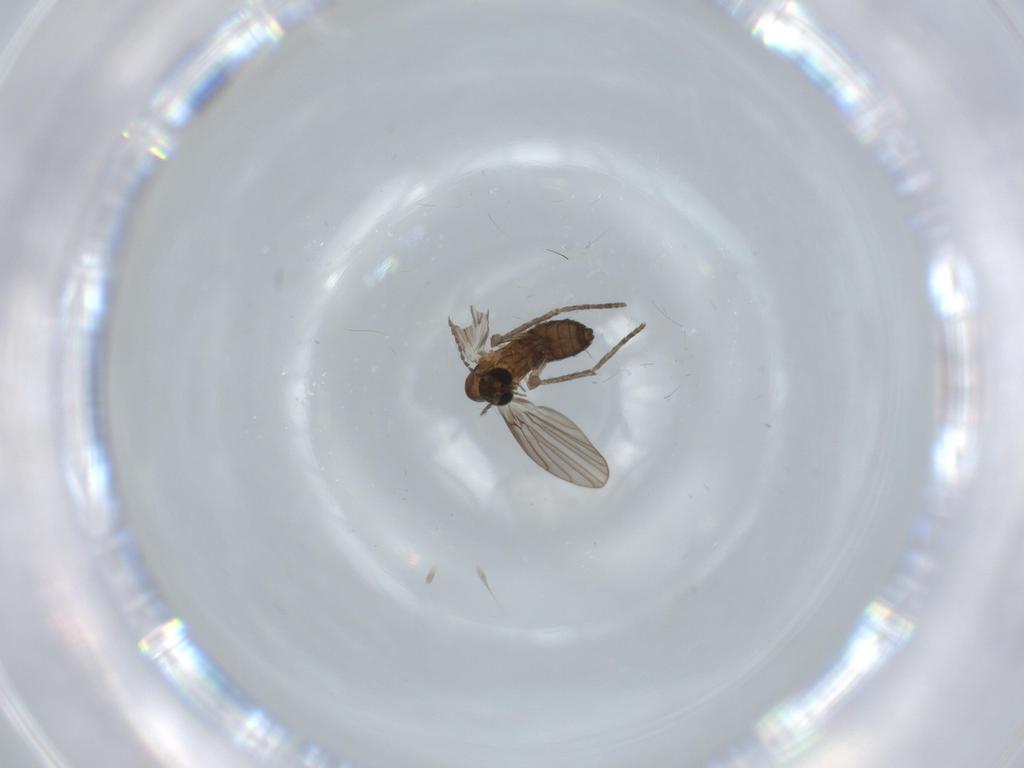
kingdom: Animalia
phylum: Arthropoda
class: Insecta
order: Diptera
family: Psychodidae
